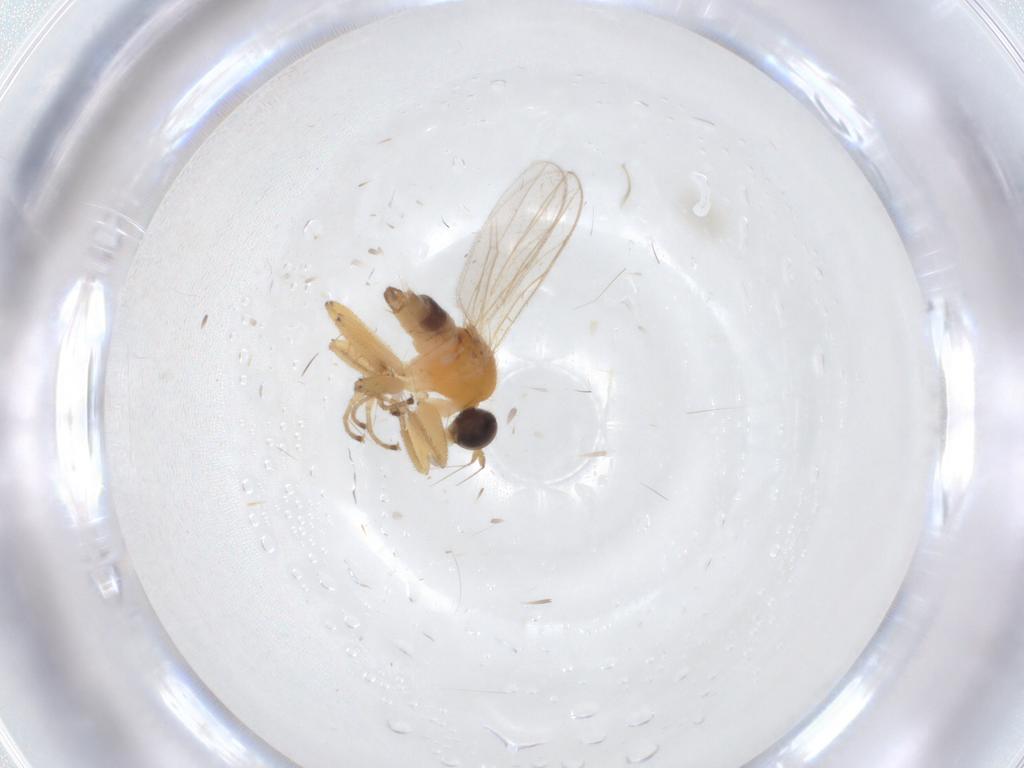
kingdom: Animalia
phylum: Arthropoda
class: Insecta
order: Diptera
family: Hybotidae
